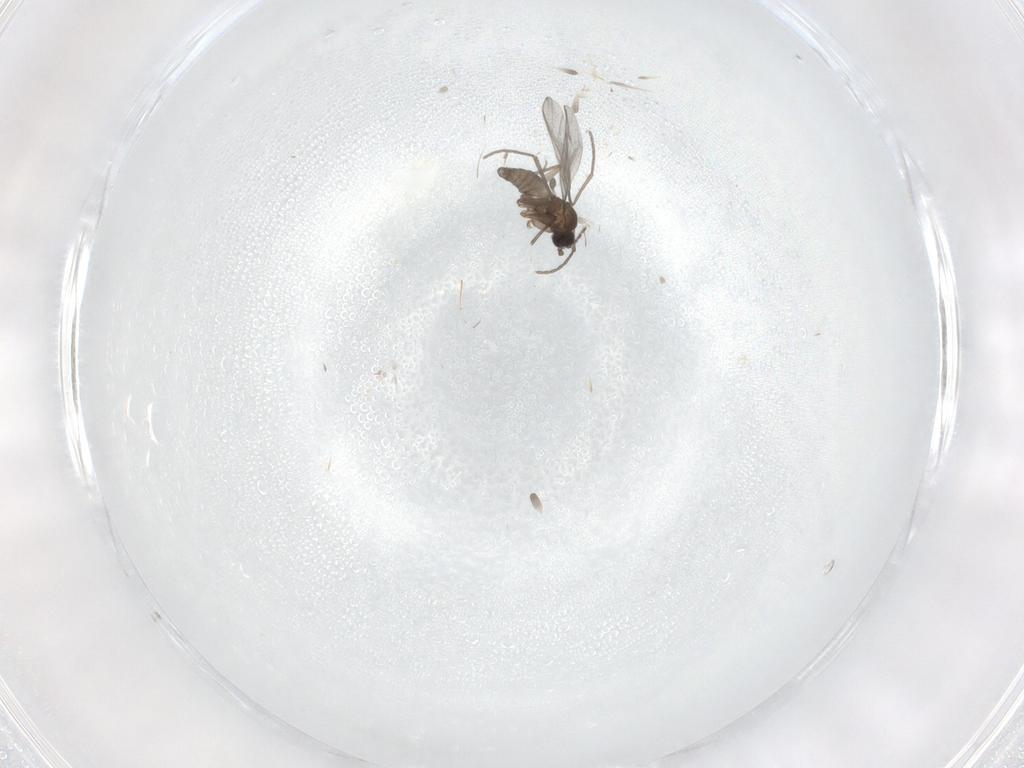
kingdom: Animalia
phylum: Arthropoda
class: Insecta
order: Diptera
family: Sciaridae
